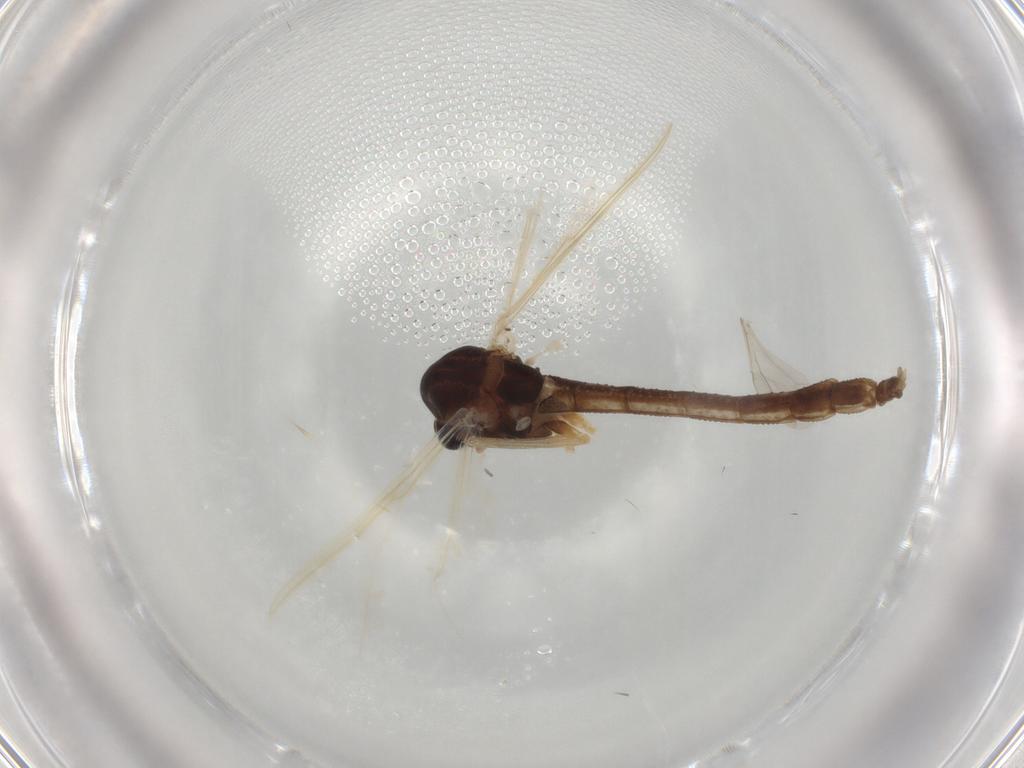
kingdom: Animalia
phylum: Arthropoda
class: Insecta
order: Diptera
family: Chironomidae
